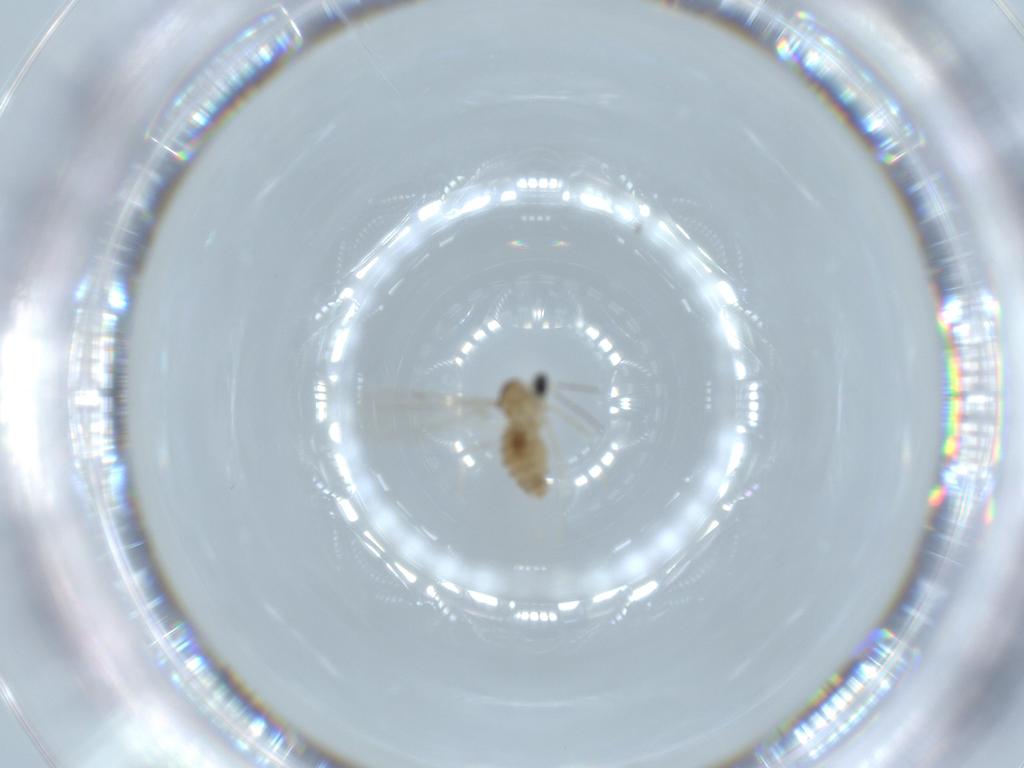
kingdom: Animalia
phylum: Arthropoda
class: Insecta
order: Diptera
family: Cecidomyiidae
